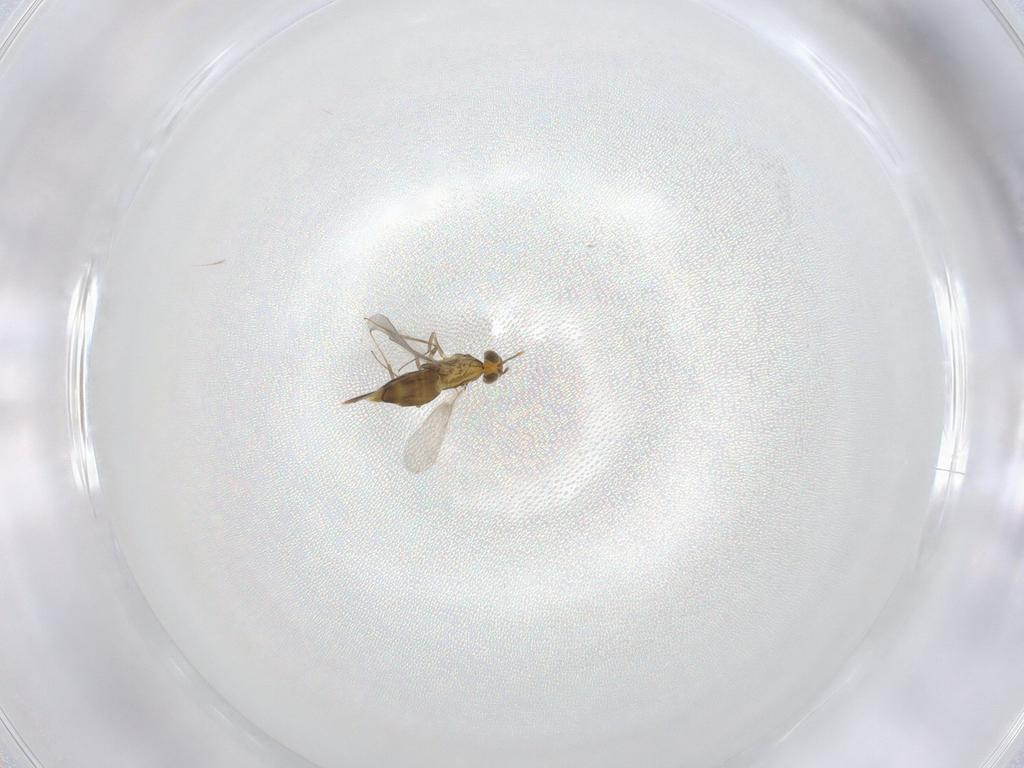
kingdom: Animalia
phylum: Arthropoda
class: Insecta
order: Hymenoptera
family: Aphelinidae
